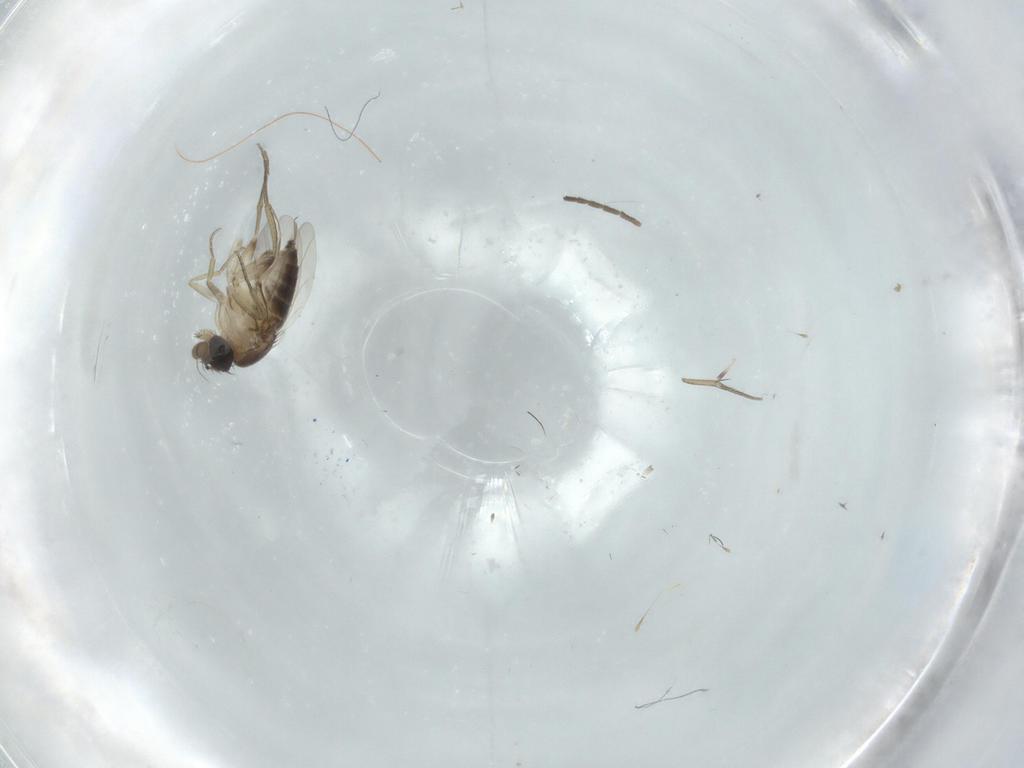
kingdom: Animalia
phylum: Arthropoda
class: Insecta
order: Diptera
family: Phoridae
